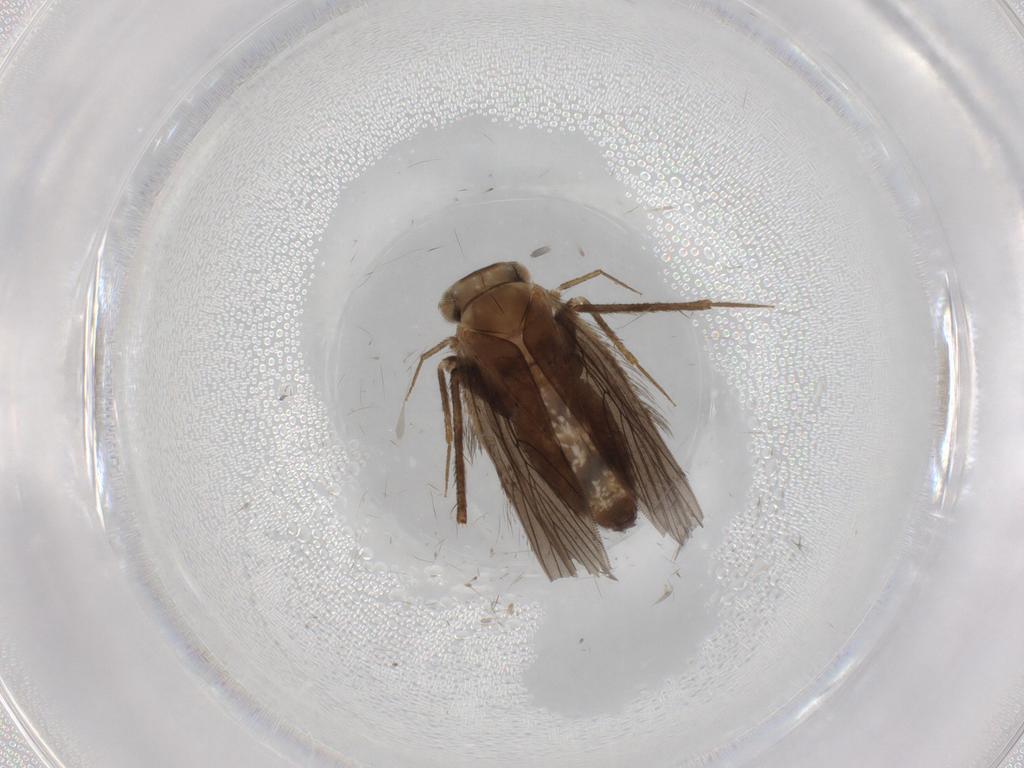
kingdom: Animalia
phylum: Arthropoda
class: Insecta
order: Psocodea
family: Lepidopsocidae
